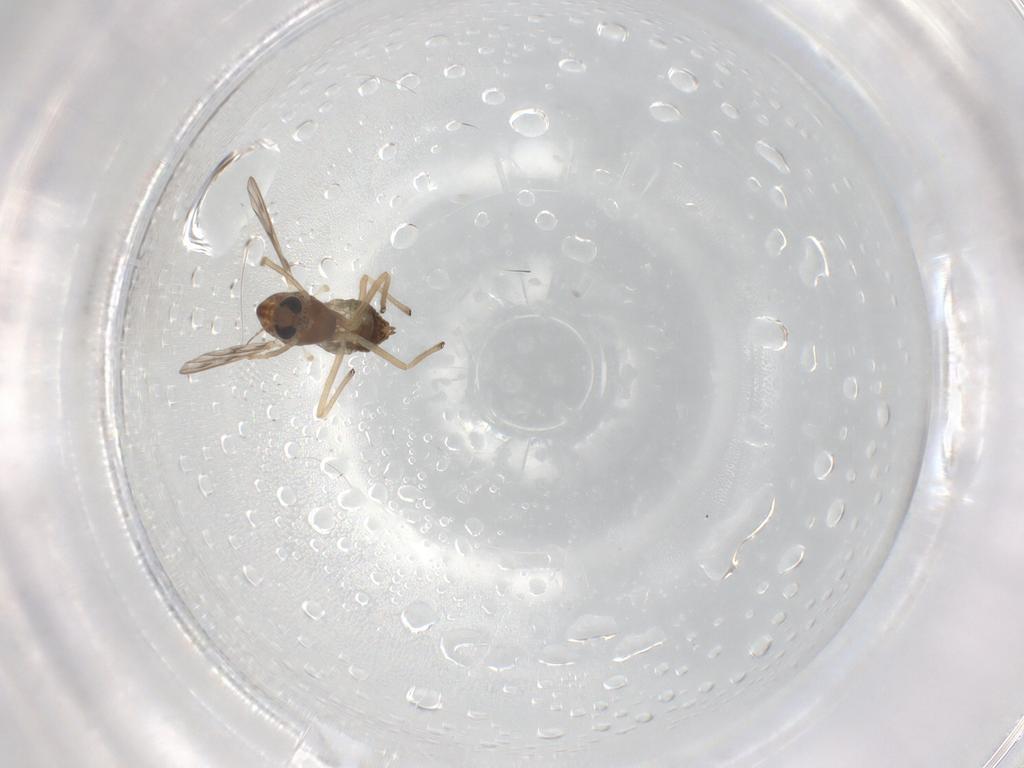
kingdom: Animalia
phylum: Arthropoda
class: Insecta
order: Diptera
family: Chironomidae
